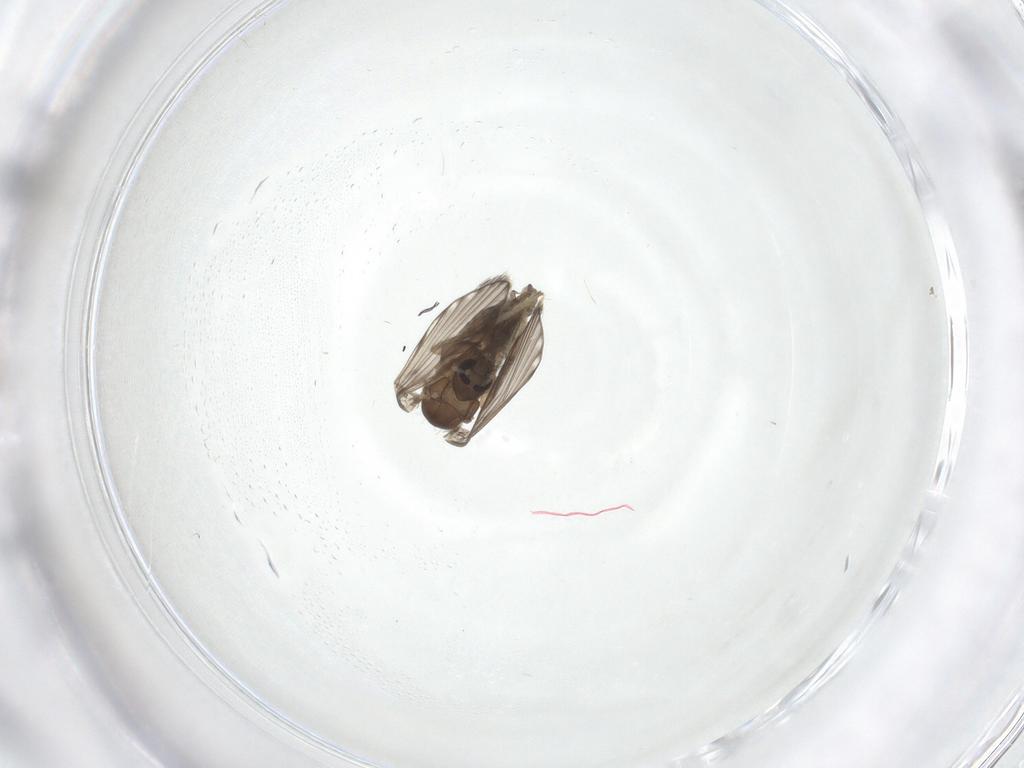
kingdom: Animalia
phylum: Arthropoda
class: Insecta
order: Diptera
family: Psychodidae
